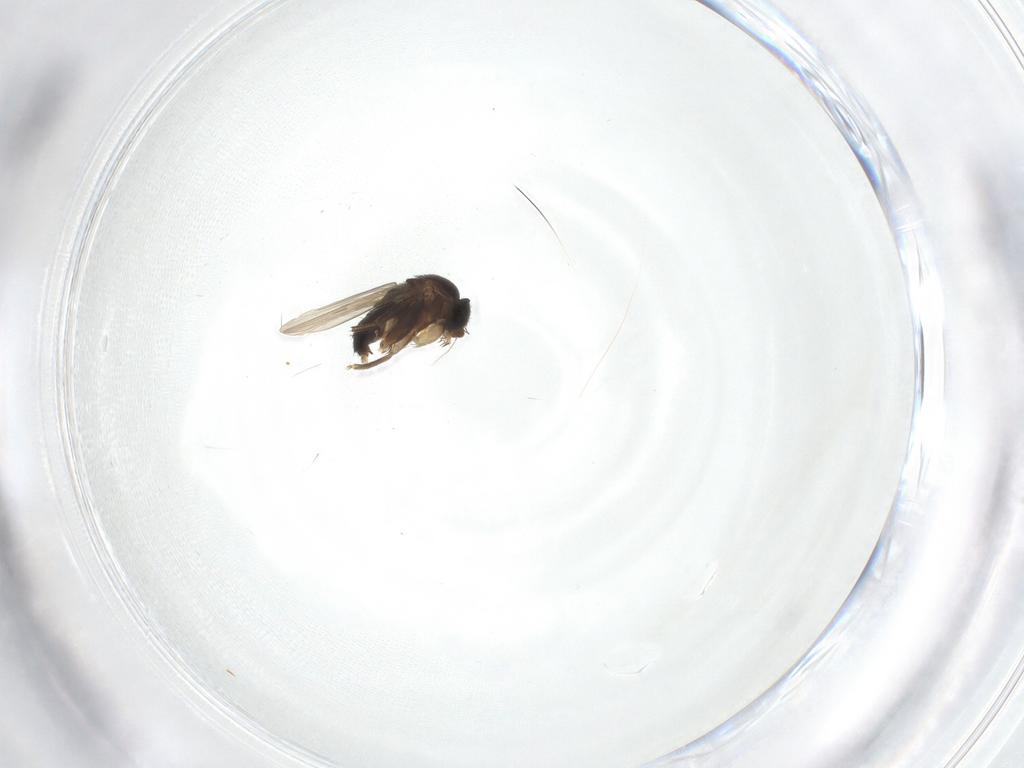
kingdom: Animalia
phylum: Arthropoda
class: Insecta
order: Diptera
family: Phoridae
